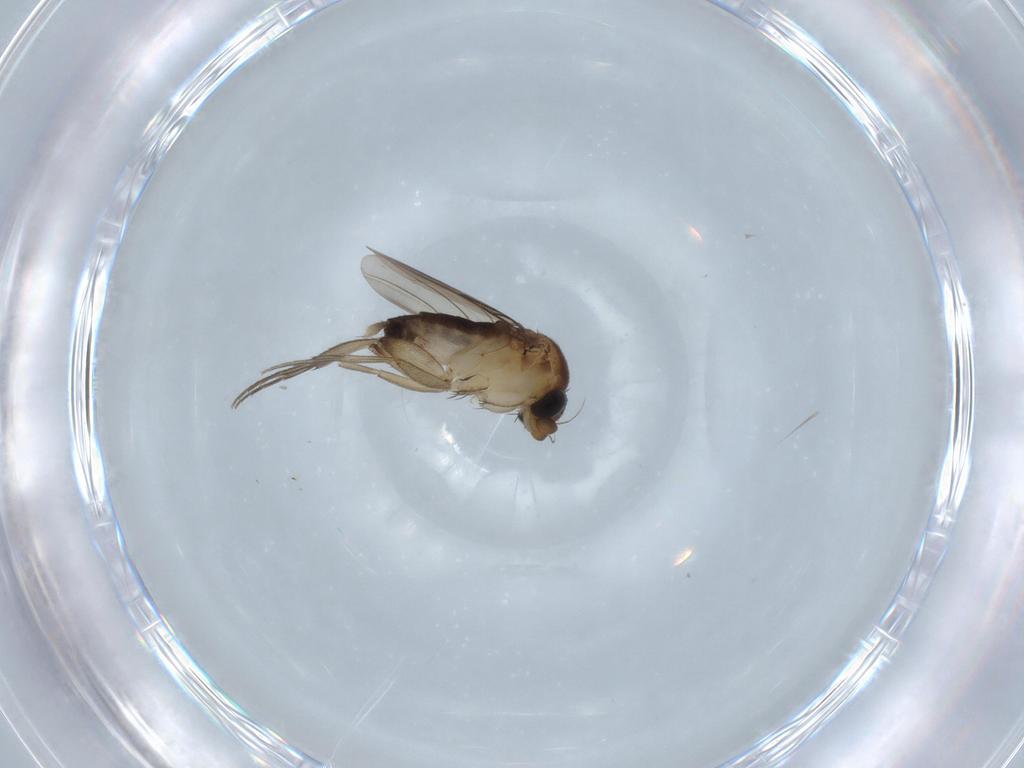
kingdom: Animalia
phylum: Arthropoda
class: Insecta
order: Diptera
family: Phoridae
